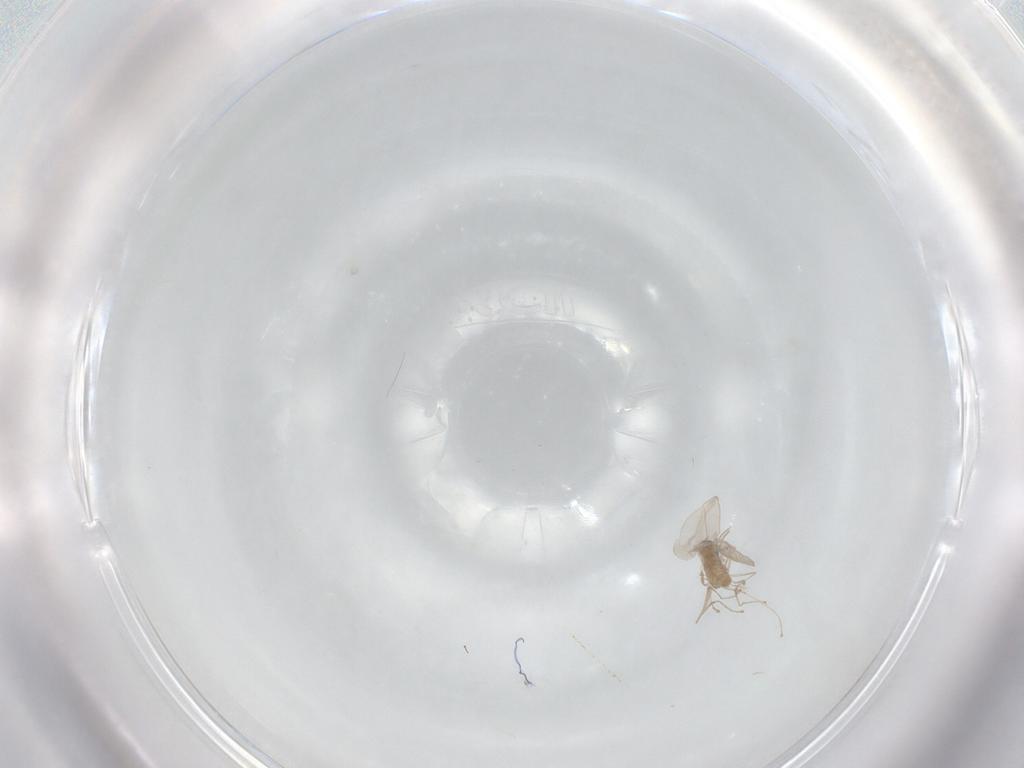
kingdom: Animalia
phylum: Arthropoda
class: Insecta
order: Diptera
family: Cecidomyiidae
